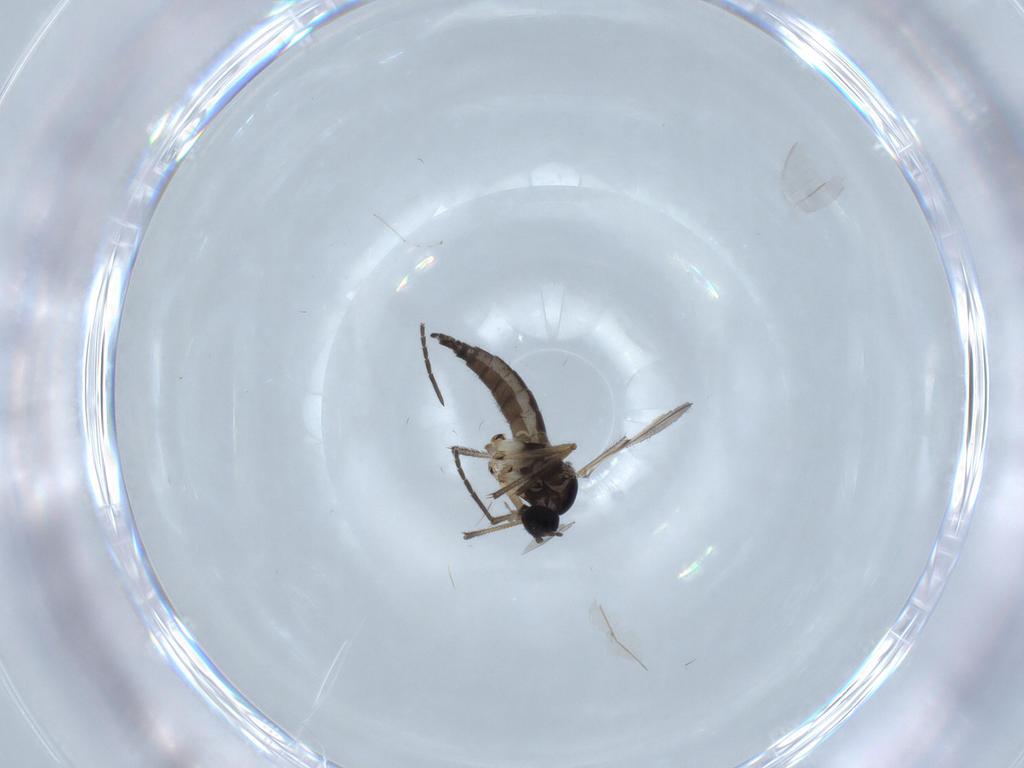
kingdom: Animalia
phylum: Arthropoda
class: Insecta
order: Diptera
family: Sciaridae
